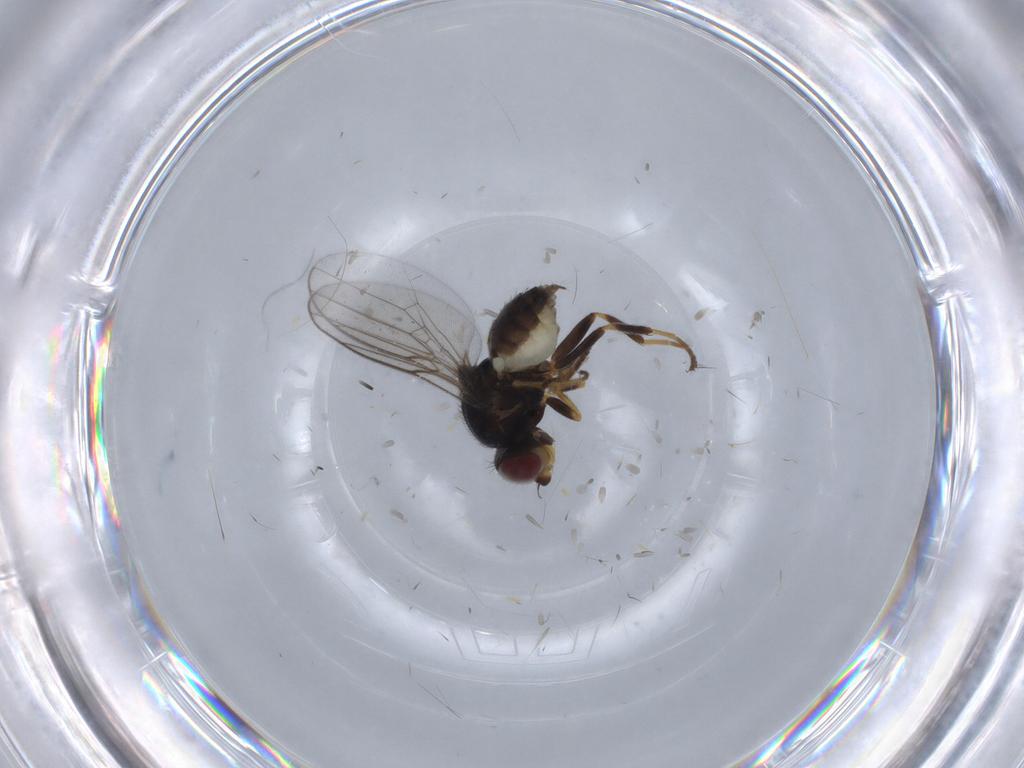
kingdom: Animalia
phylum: Arthropoda
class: Insecta
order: Diptera
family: Chloropidae
